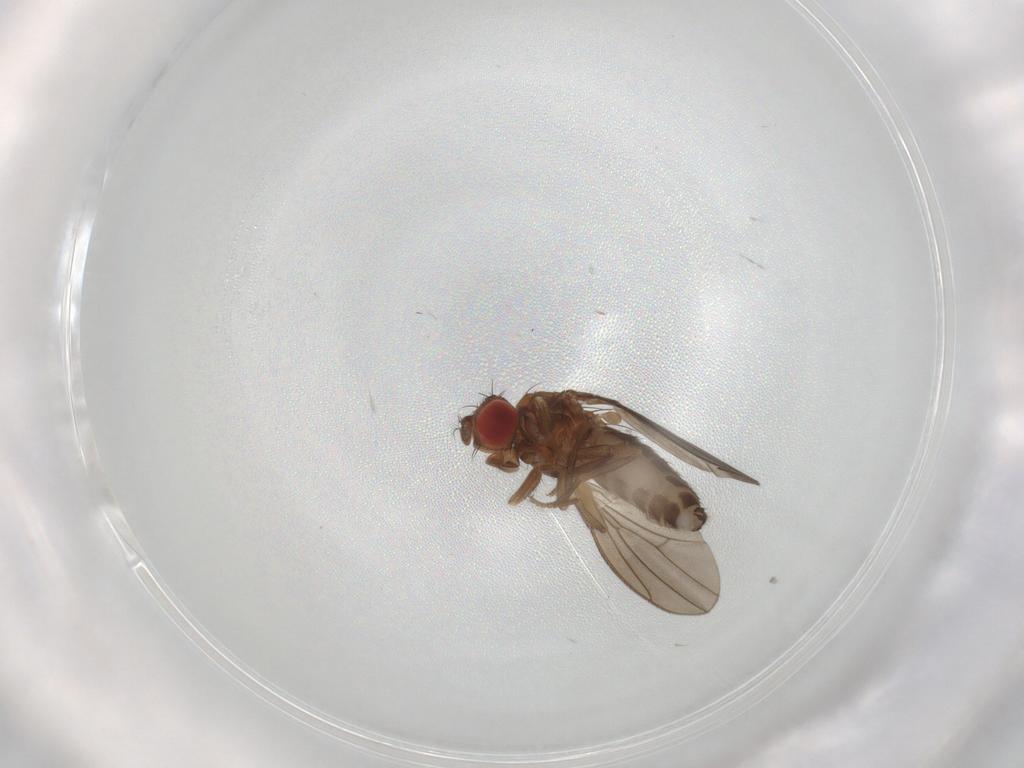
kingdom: Animalia
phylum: Arthropoda
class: Insecta
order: Diptera
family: Drosophilidae
